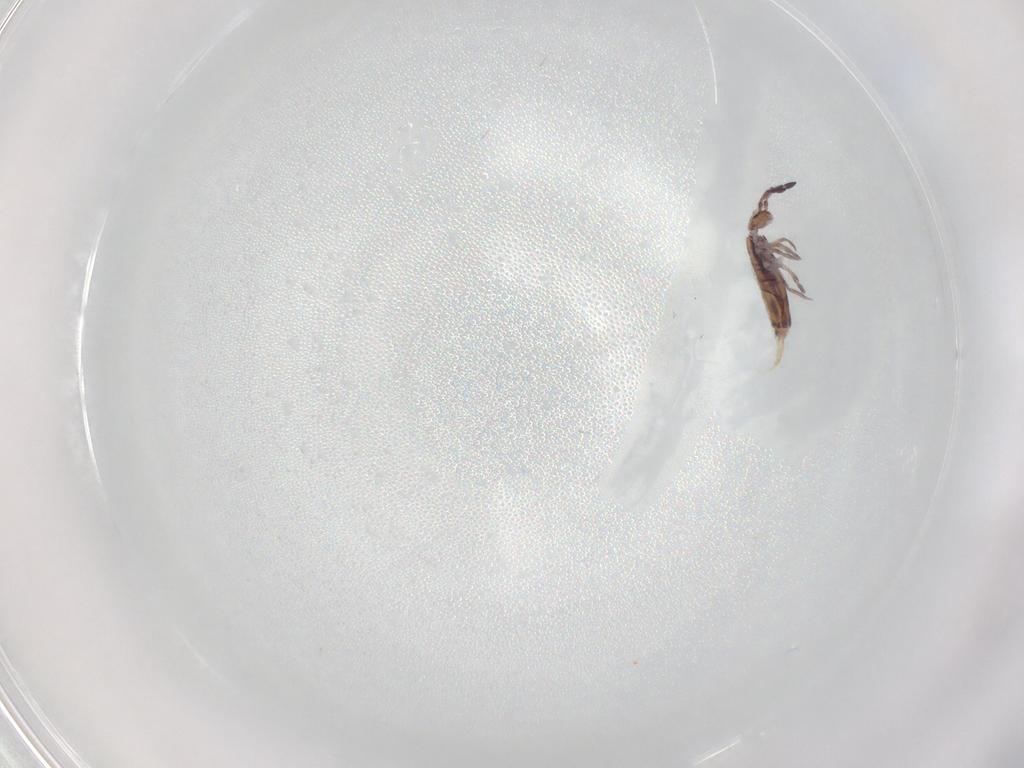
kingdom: Animalia
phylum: Arthropoda
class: Collembola
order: Entomobryomorpha
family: Entomobryidae
